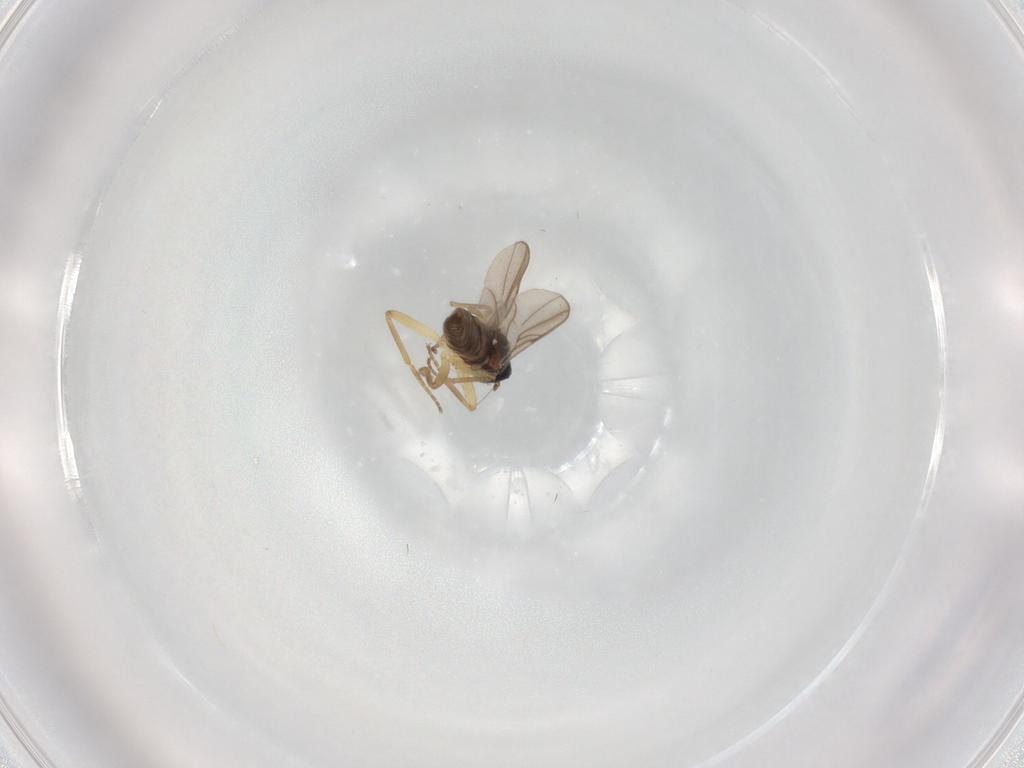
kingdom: Animalia
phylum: Arthropoda
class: Insecta
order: Diptera
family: Hybotidae
